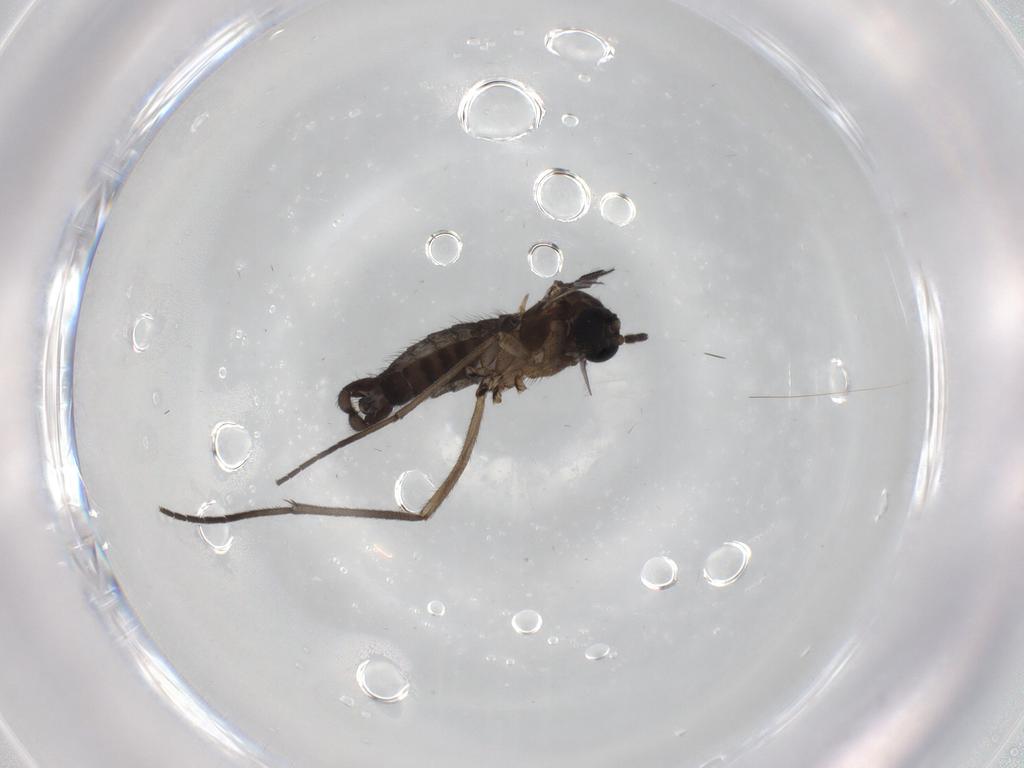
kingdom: Animalia
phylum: Arthropoda
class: Insecta
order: Diptera
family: Sciaridae
